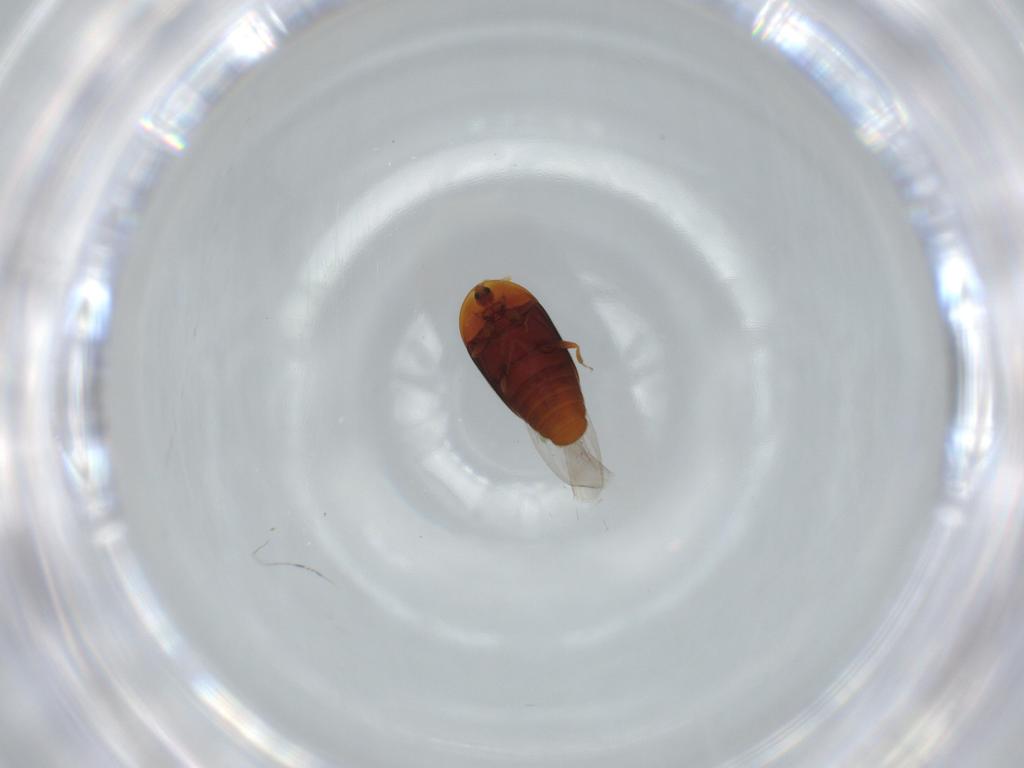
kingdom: Animalia
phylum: Arthropoda
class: Insecta
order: Coleoptera
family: Corylophidae
